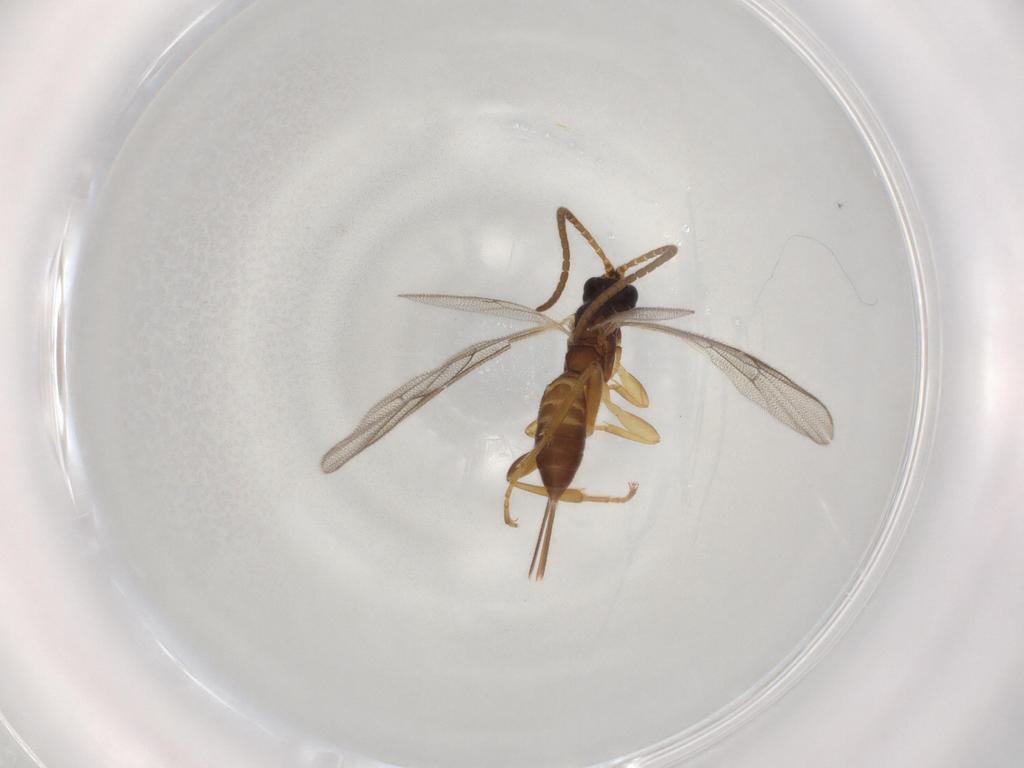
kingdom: Animalia
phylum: Arthropoda
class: Insecta
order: Hymenoptera
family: Ichneumonidae
